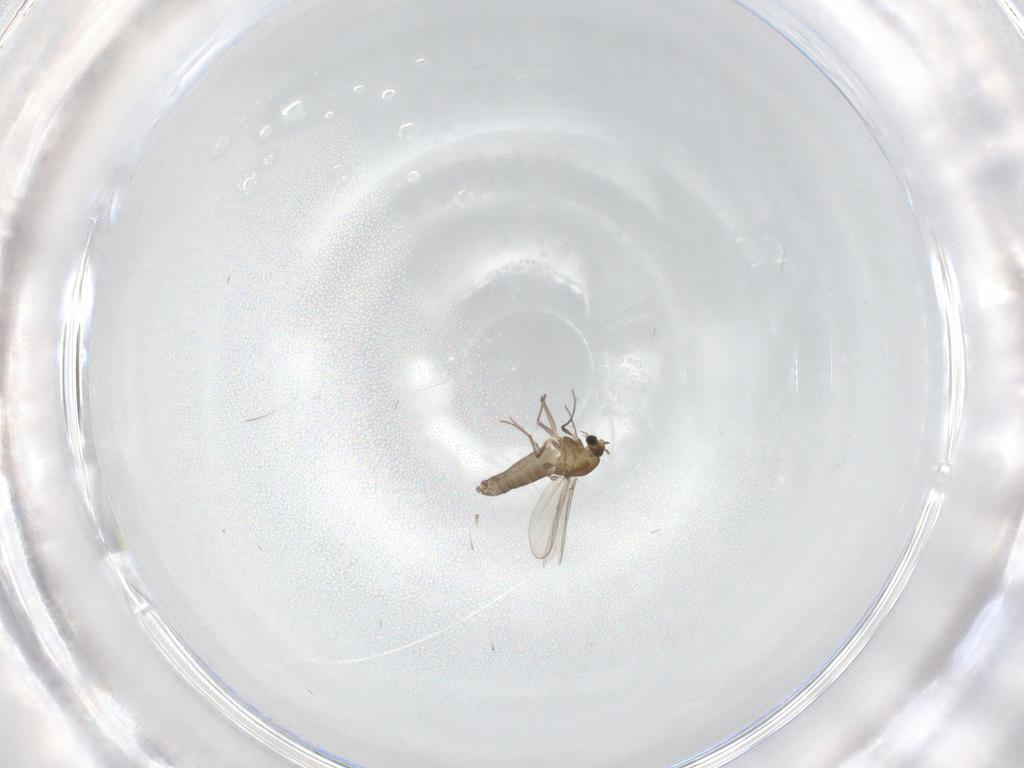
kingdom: Animalia
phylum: Arthropoda
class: Insecta
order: Diptera
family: Chironomidae
